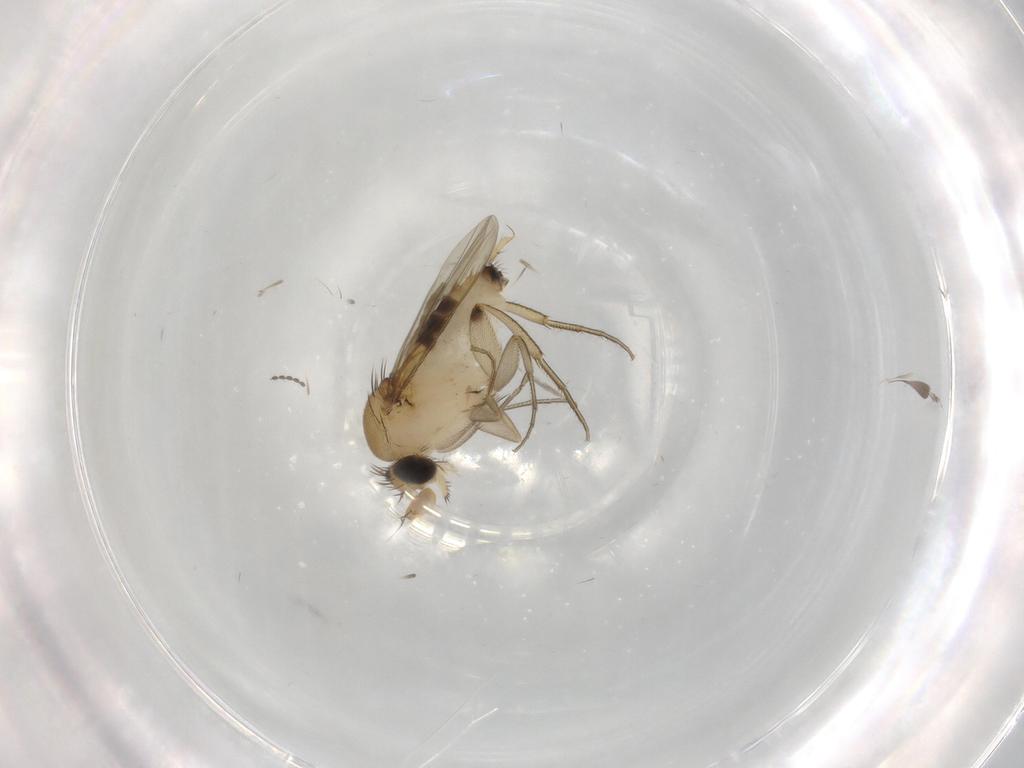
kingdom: Animalia
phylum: Arthropoda
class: Insecta
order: Diptera
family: Phoridae
